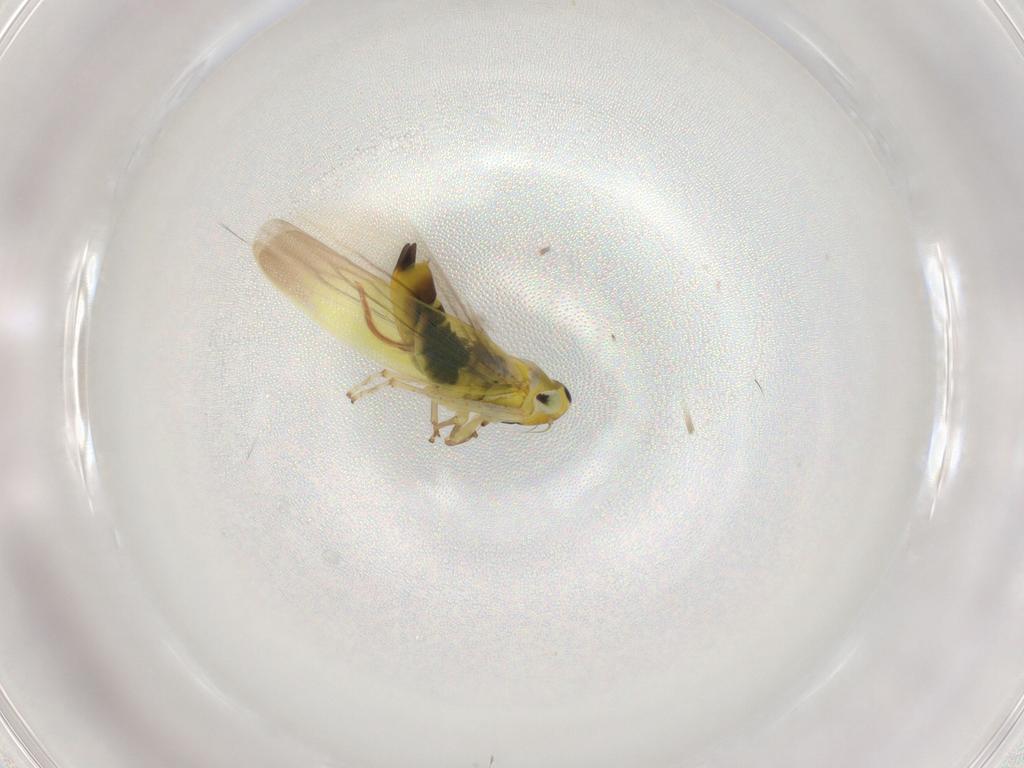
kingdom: Animalia
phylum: Arthropoda
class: Insecta
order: Hemiptera
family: Cicadellidae
